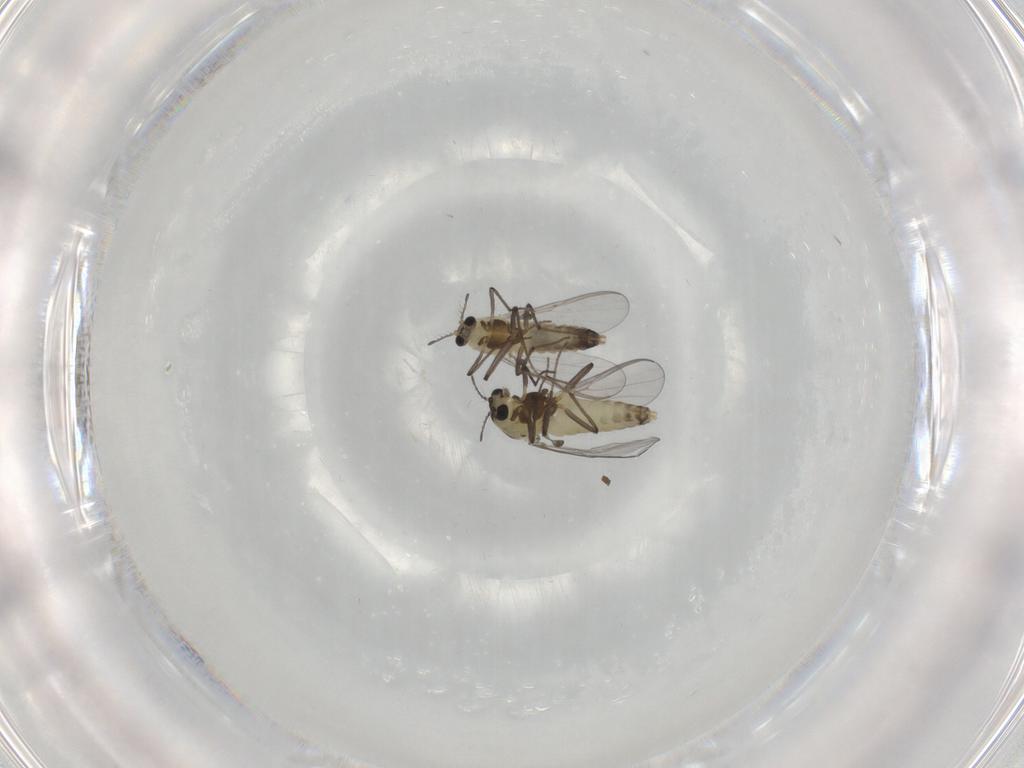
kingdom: Animalia
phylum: Arthropoda
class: Insecta
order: Diptera
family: Chironomidae
